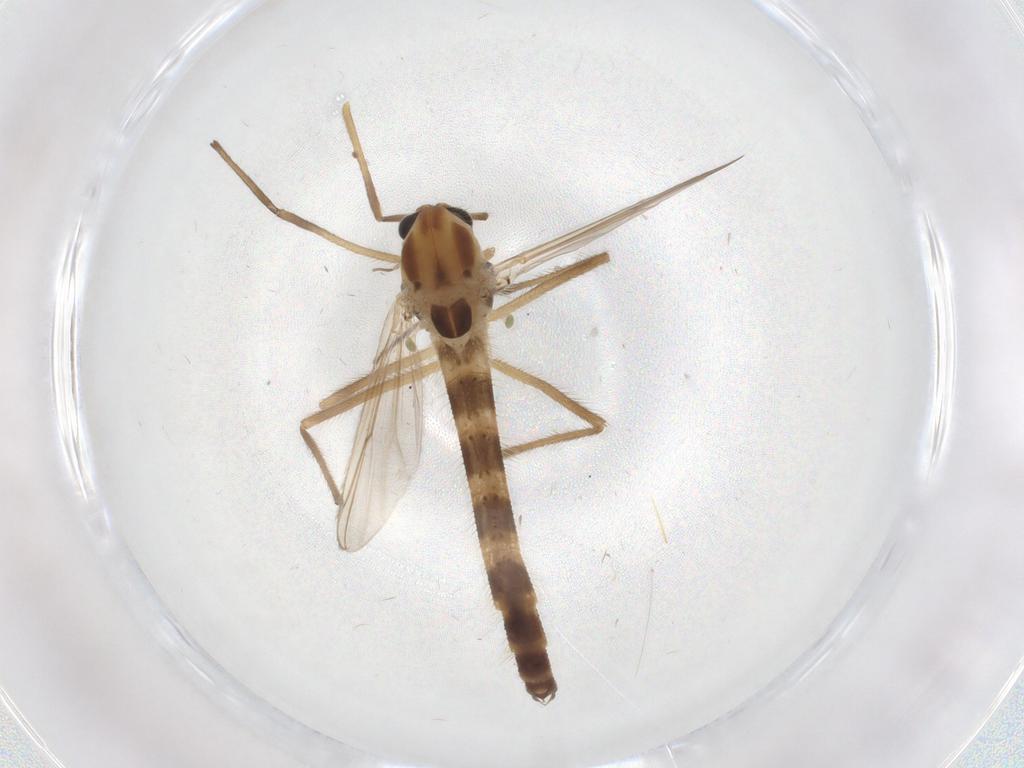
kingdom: Animalia
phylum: Arthropoda
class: Insecta
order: Diptera
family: Chironomidae
